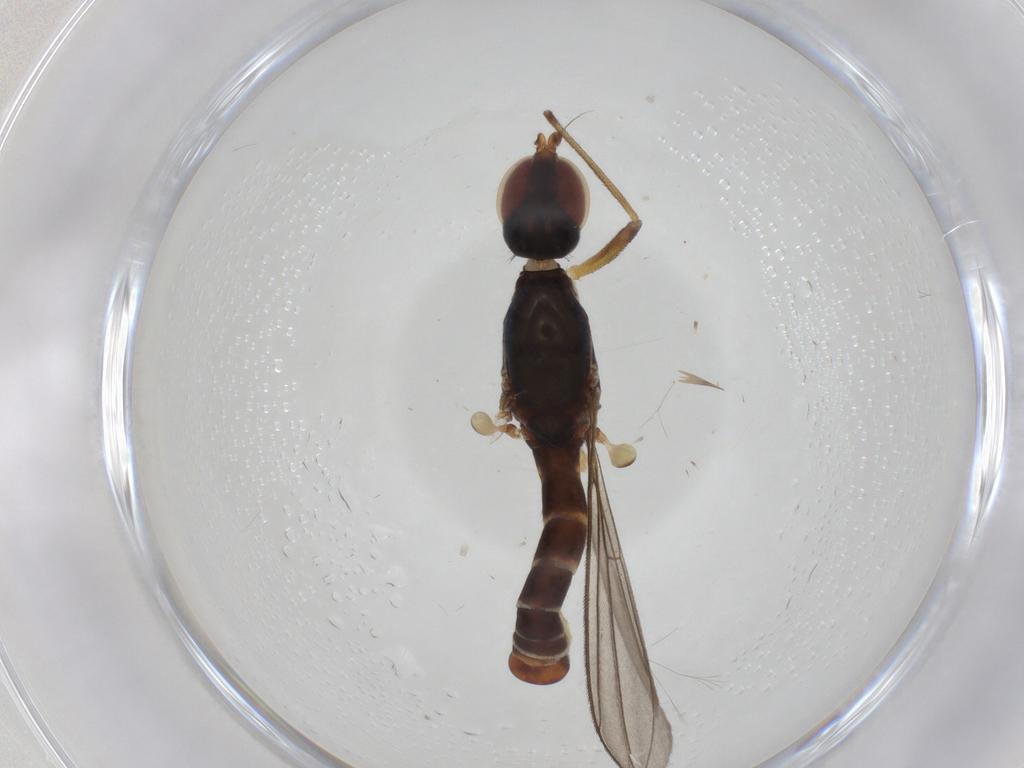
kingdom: Animalia
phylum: Arthropoda
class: Insecta
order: Diptera
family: Micropezidae
